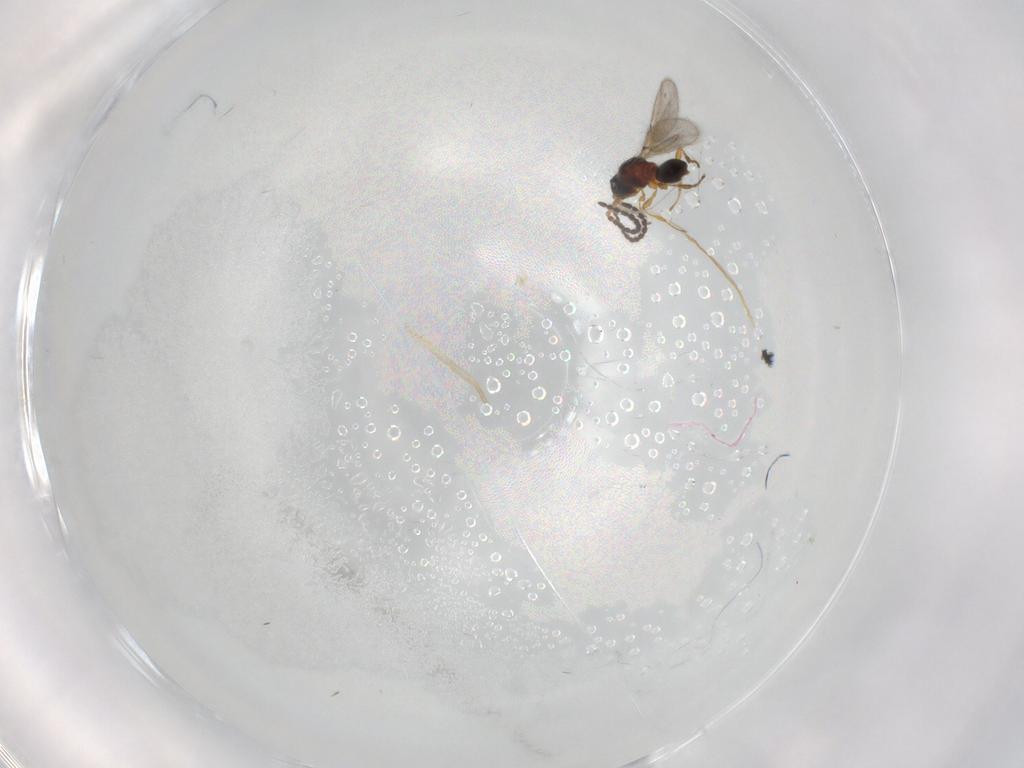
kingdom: Animalia
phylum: Arthropoda
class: Insecta
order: Hymenoptera
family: Diapriidae
